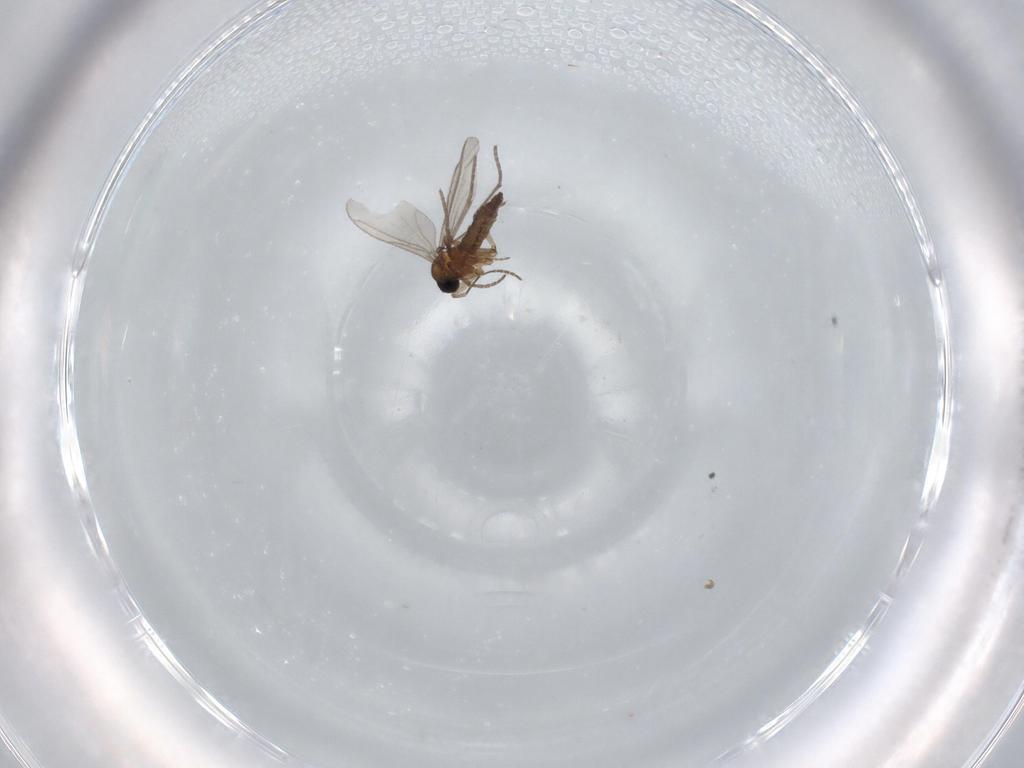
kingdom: Animalia
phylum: Arthropoda
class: Insecta
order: Diptera
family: Ceratopogonidae
